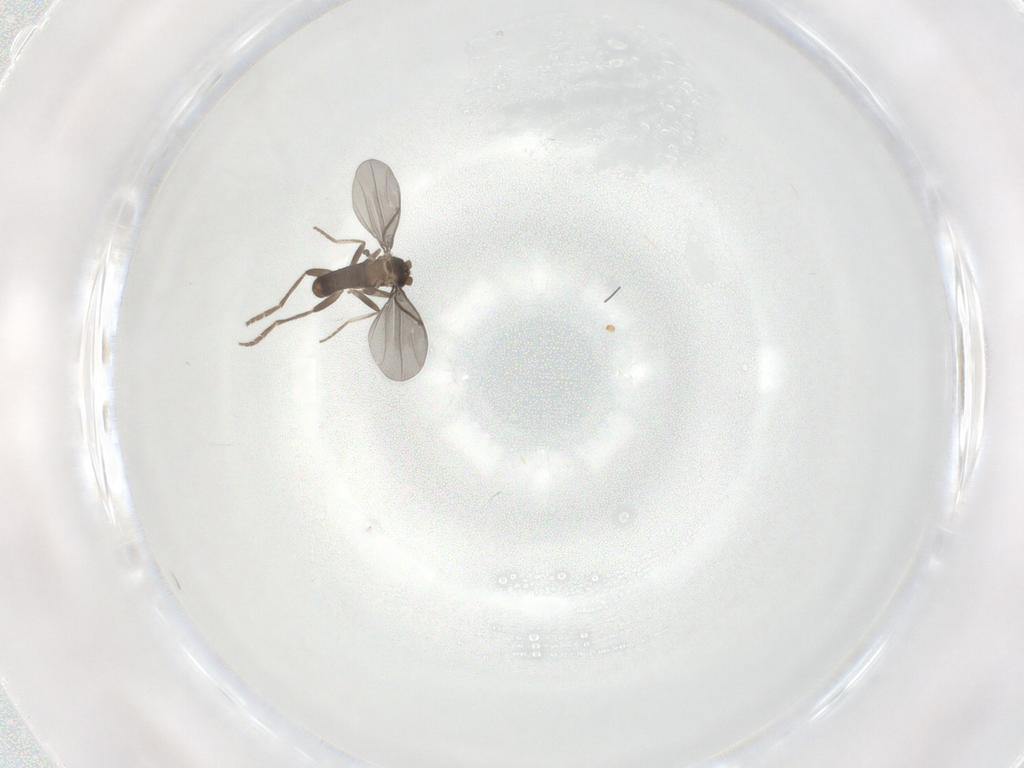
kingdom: Animalia
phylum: Arthropoda
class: Insecta
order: Diptera
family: Phoridae
